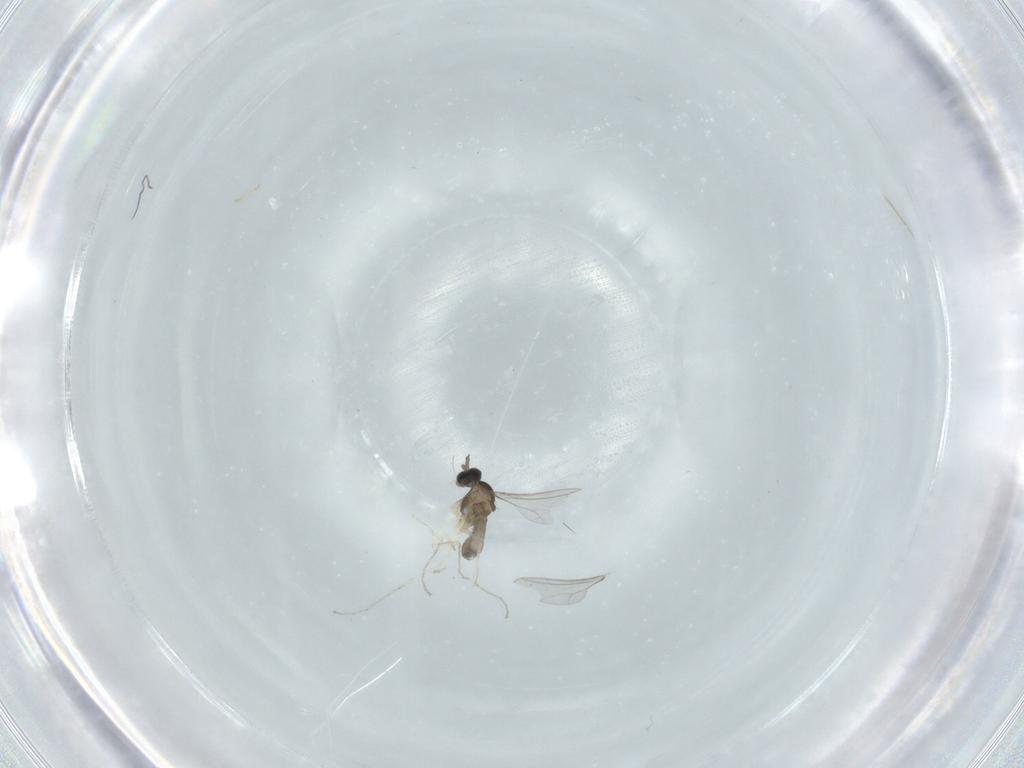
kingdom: Animalia
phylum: Arthropoda
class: Insecta
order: Diptera
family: Cecidomyiidae
